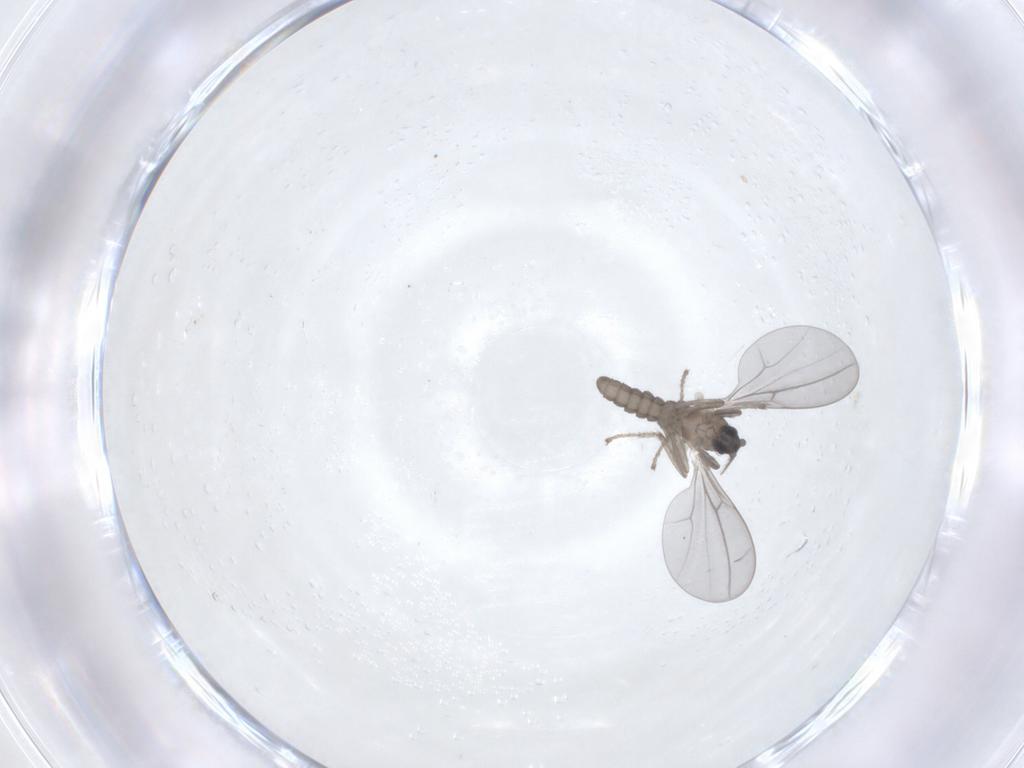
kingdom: Animalia
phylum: Arthropoda
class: Insecta
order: Diptera
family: Cecidomyiidae
